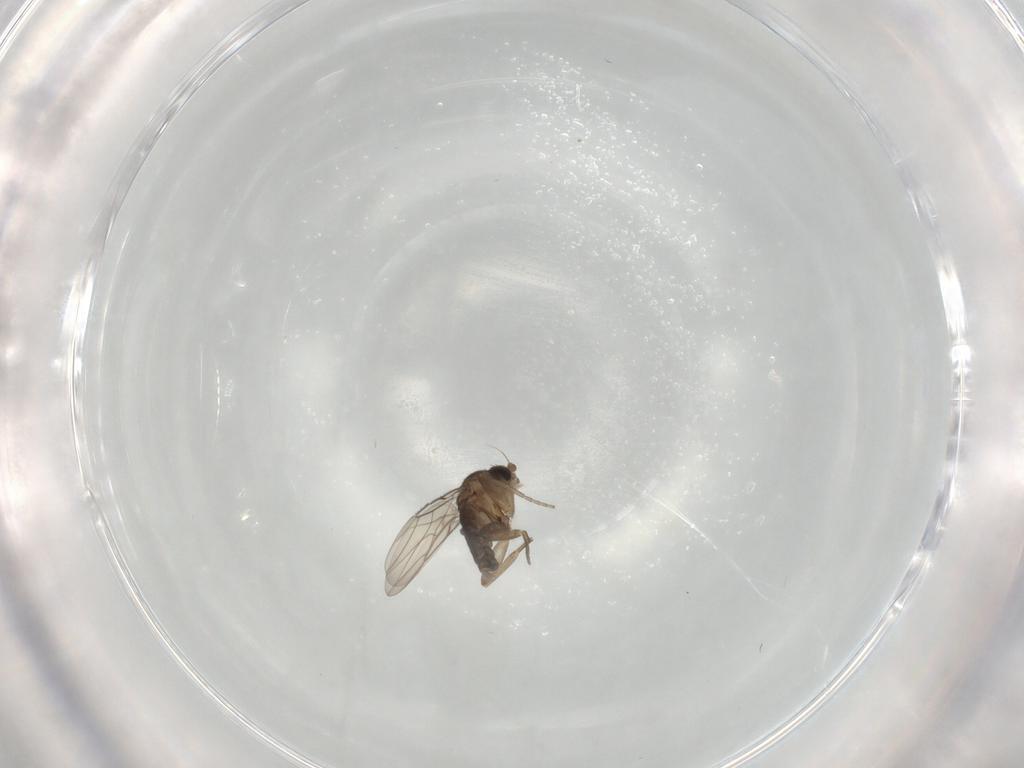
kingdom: Animalia
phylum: Arthropoda
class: Insecta
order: Diptera
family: Phoridae
